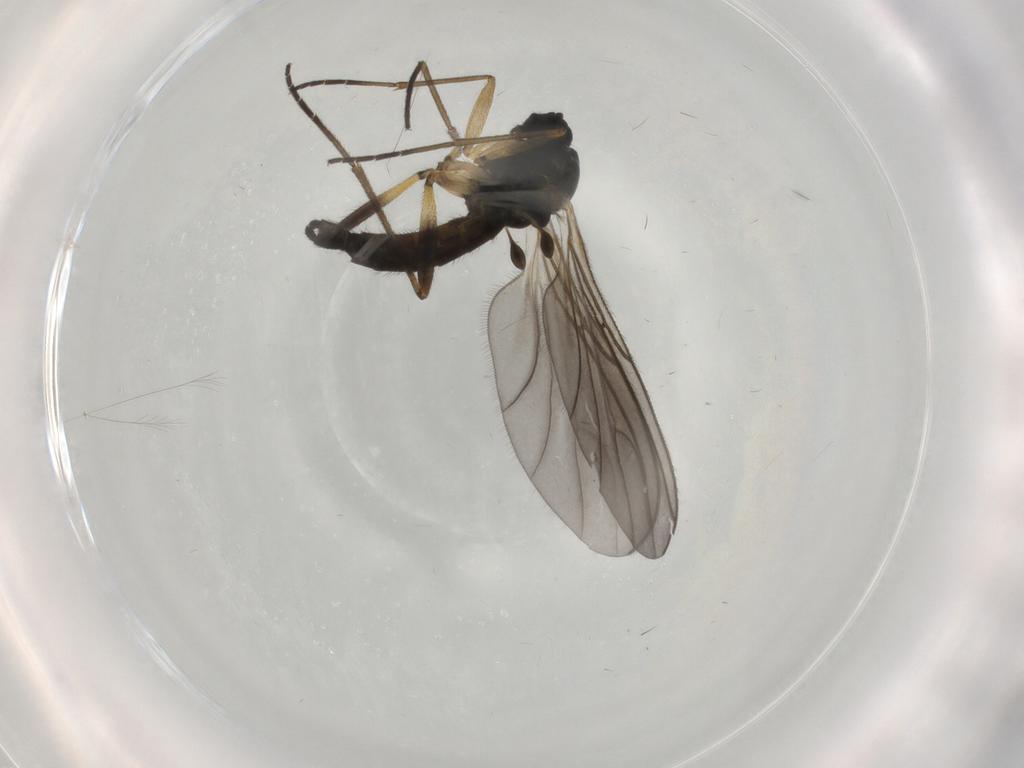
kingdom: Animalia
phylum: Arthropoda
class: Insecta
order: Diptera
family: Sciaridae
